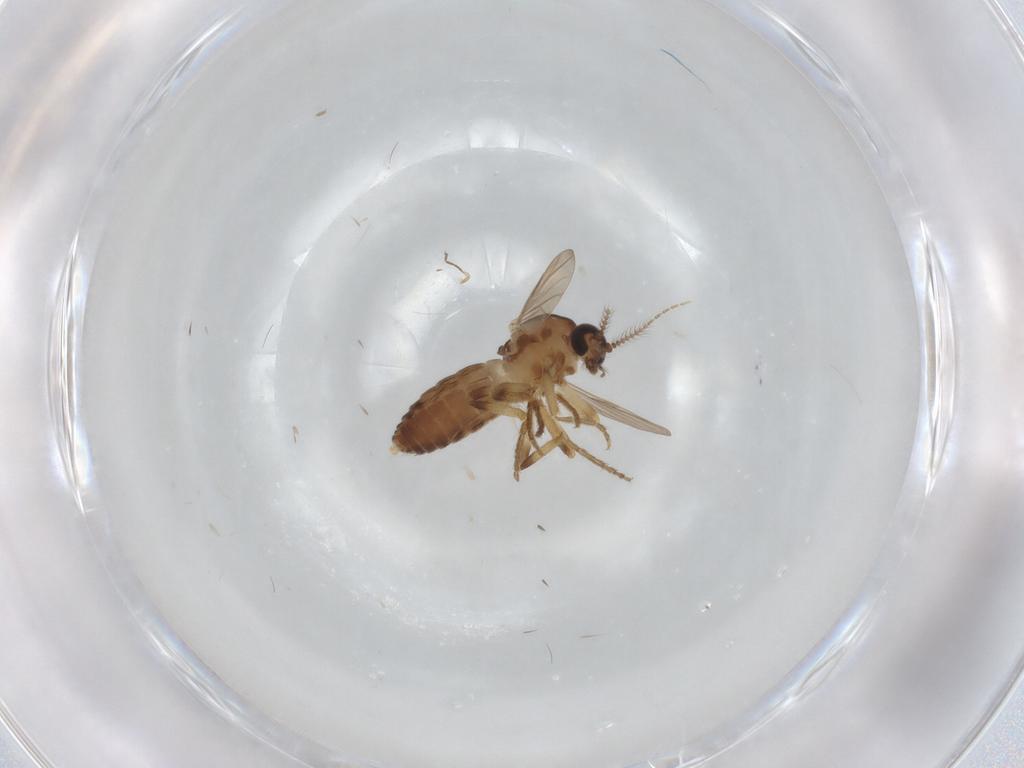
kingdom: Animalia
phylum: Arthropoda
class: Insecta
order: Diptera
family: Ceratopogonidae
